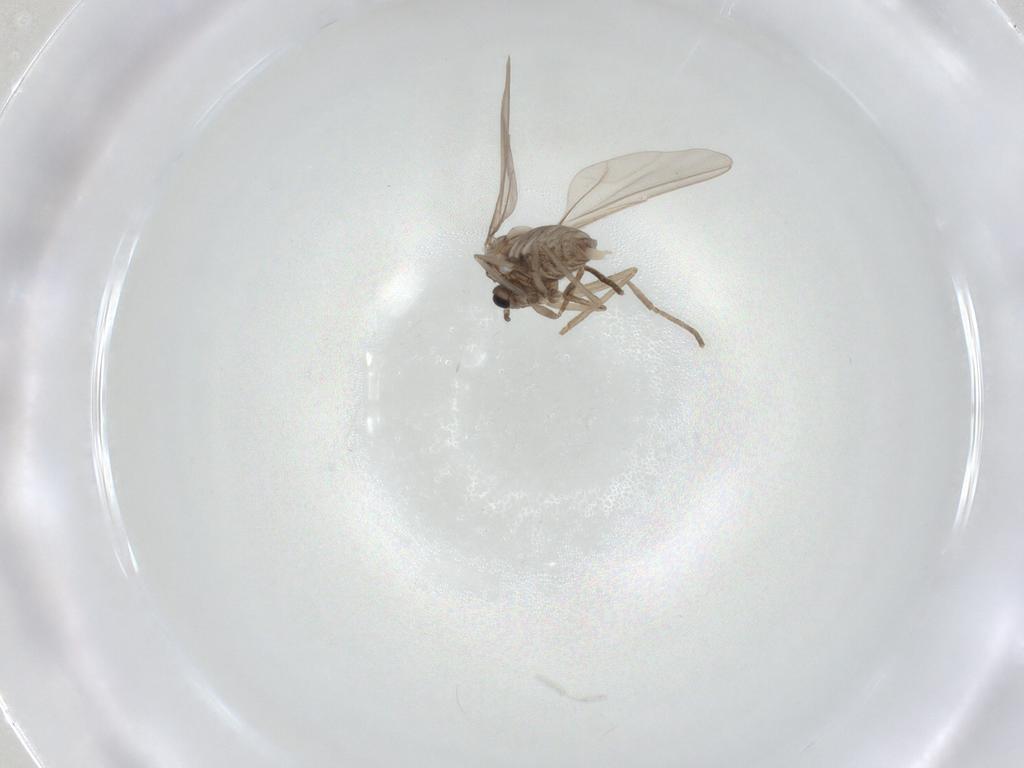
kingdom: Animalia
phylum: Arthropoda
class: Insecta
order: Diptera
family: Cecidomyiidae
